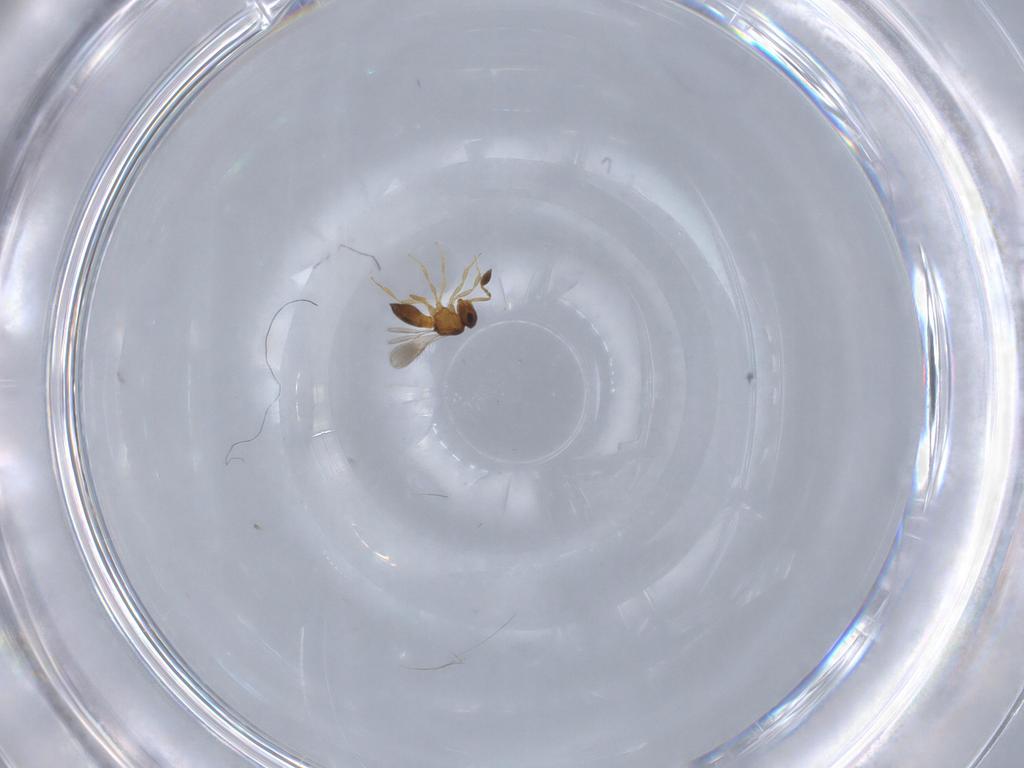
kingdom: Animalia
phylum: Arthropoda
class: Insecta
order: Hymenoptera
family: Scelionidae
